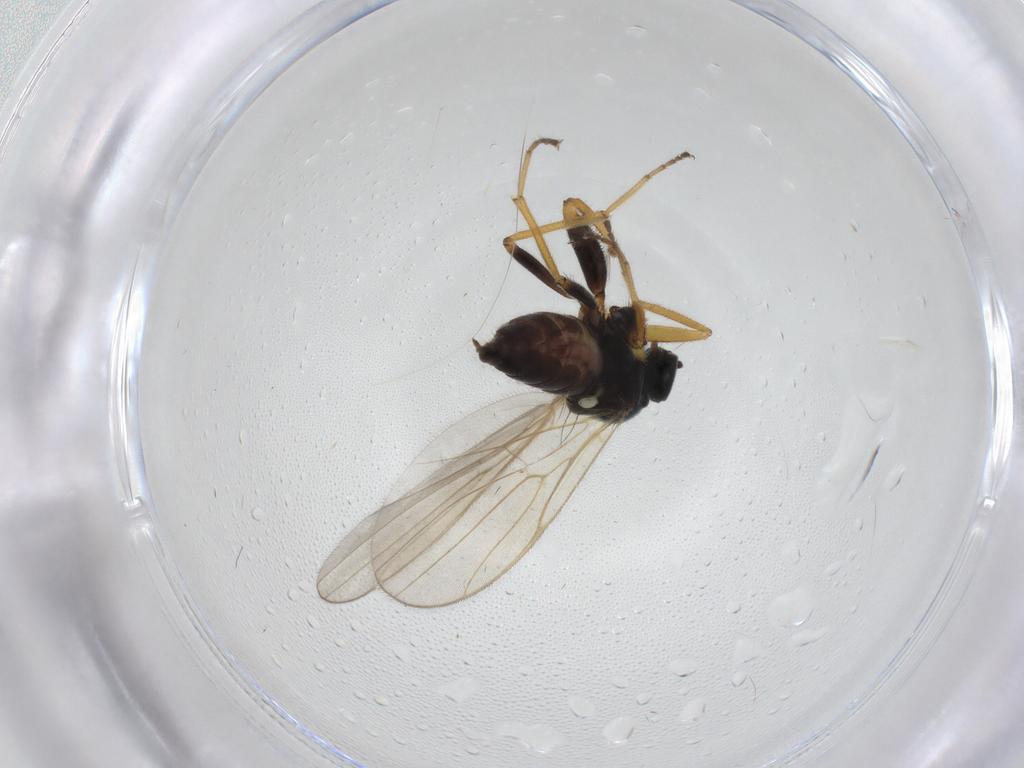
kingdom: Animalia
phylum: Arthropoda
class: Insecta
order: Diptera
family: Hybotidae
